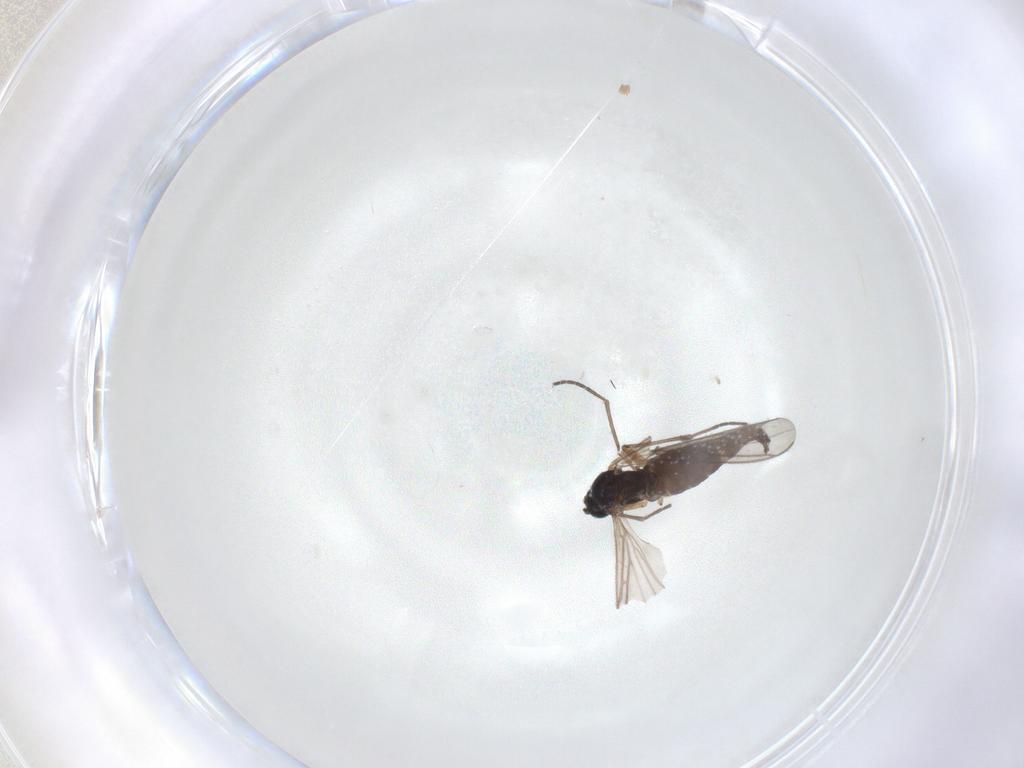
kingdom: Animalia
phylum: Arthropoda
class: Insecta
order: Diptera
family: Sciaridae
